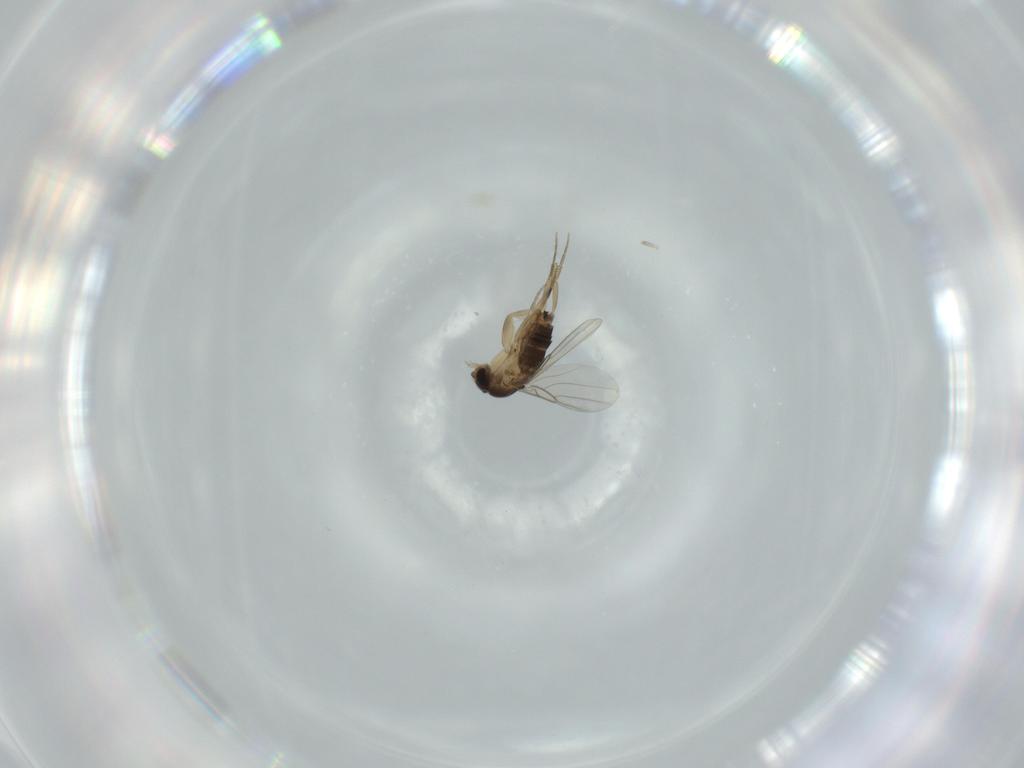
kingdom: Animalia
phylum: Arthropoda
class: Insecta
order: Diptera
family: Phoridae
